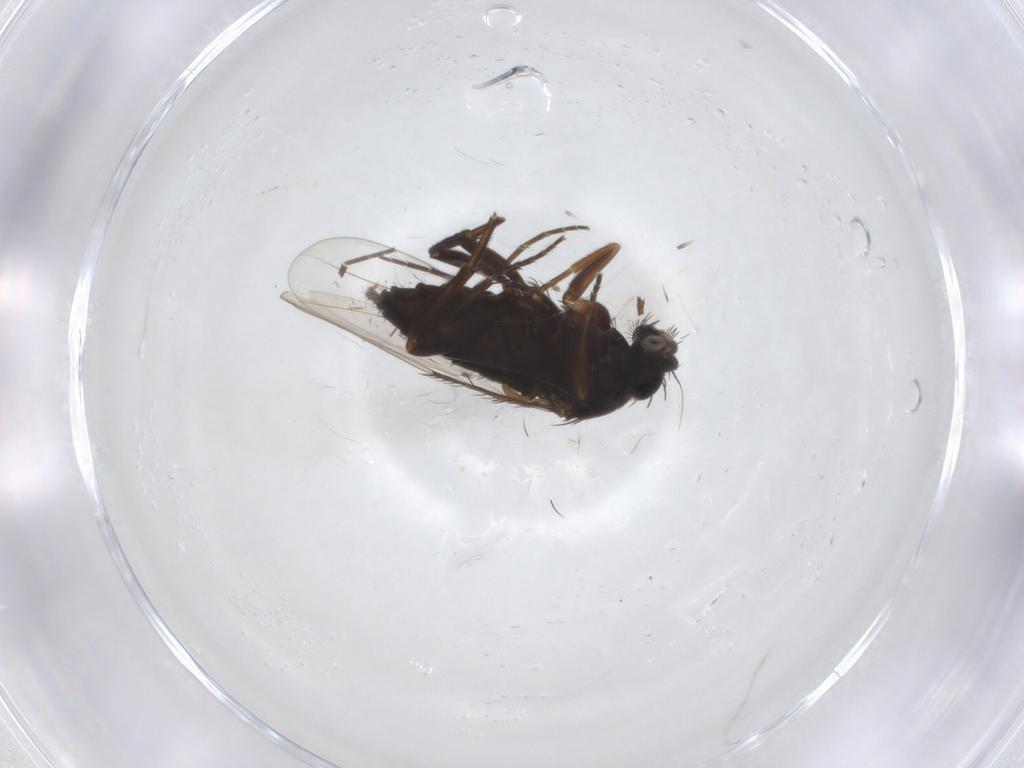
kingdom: Animalia
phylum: Arthropoda
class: Insecta
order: Diptera
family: Phoridae
